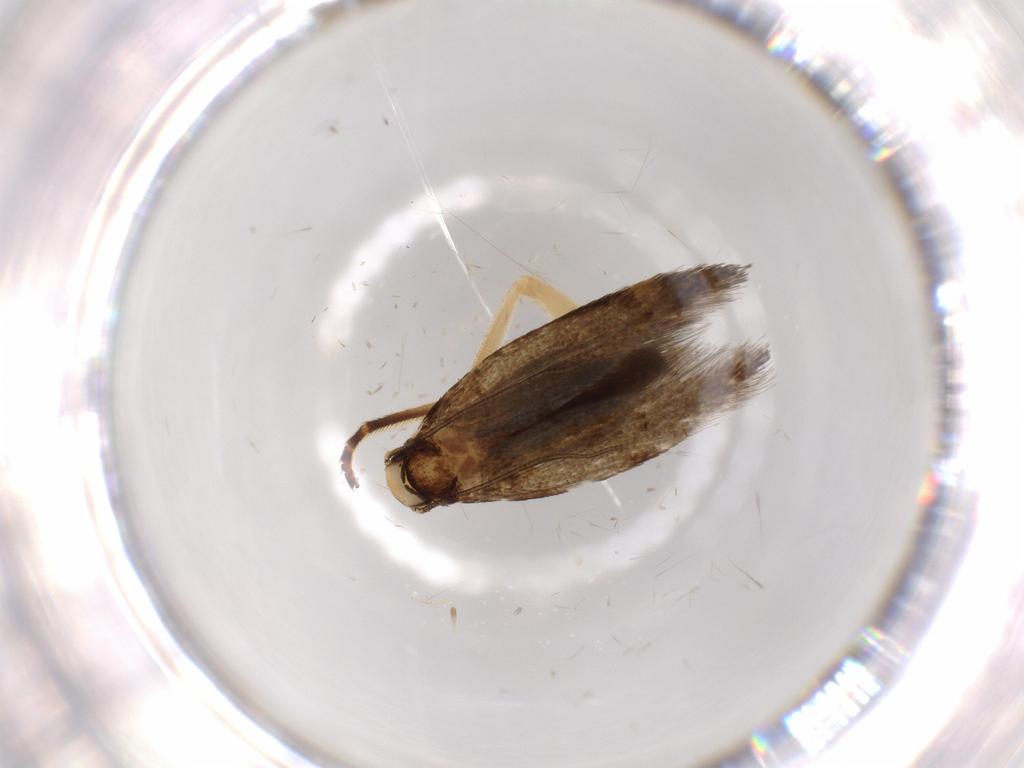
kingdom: Animalia
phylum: Arthropoda
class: Insecta
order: Lepidoptera
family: Tineidae
